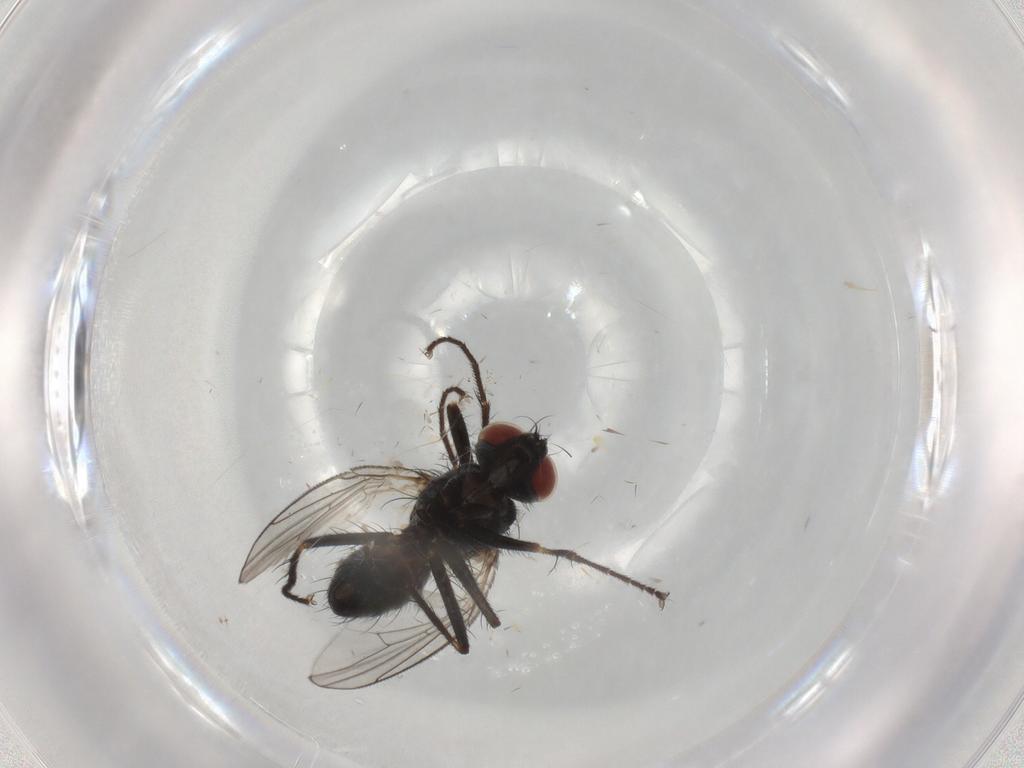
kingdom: Animalia
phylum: Arthropoda
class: Insecta
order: Diptera
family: Muscidae
